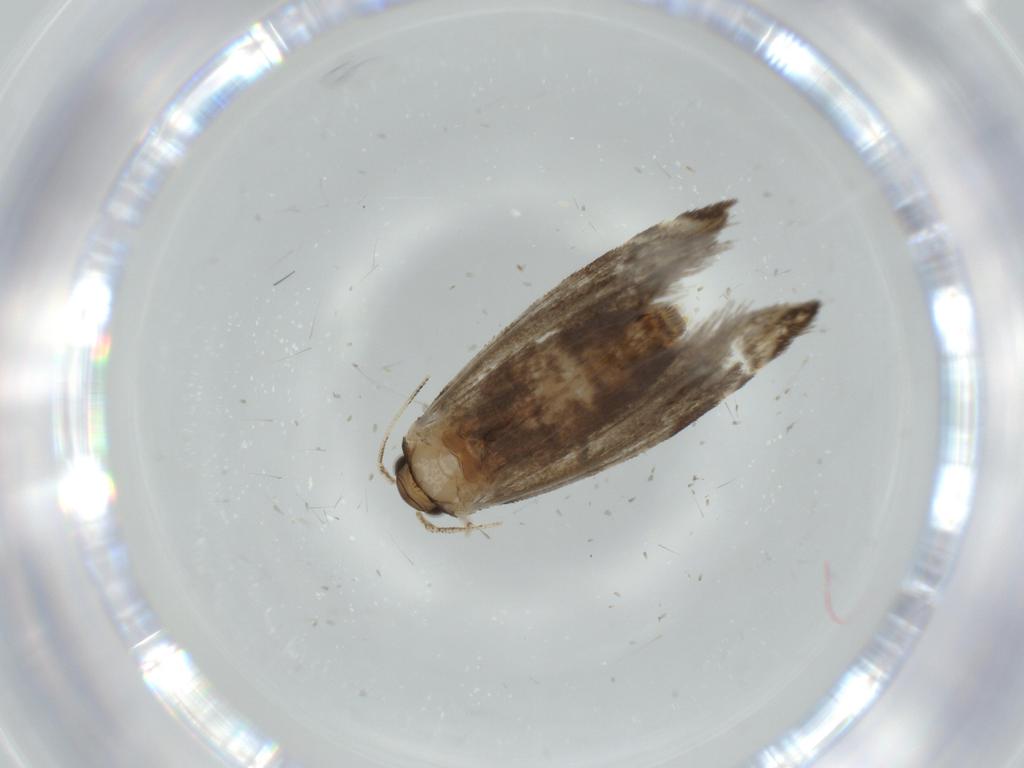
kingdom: Animalia
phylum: Arthropoda
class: Insecta
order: Lepidoptera
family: Tineidae
